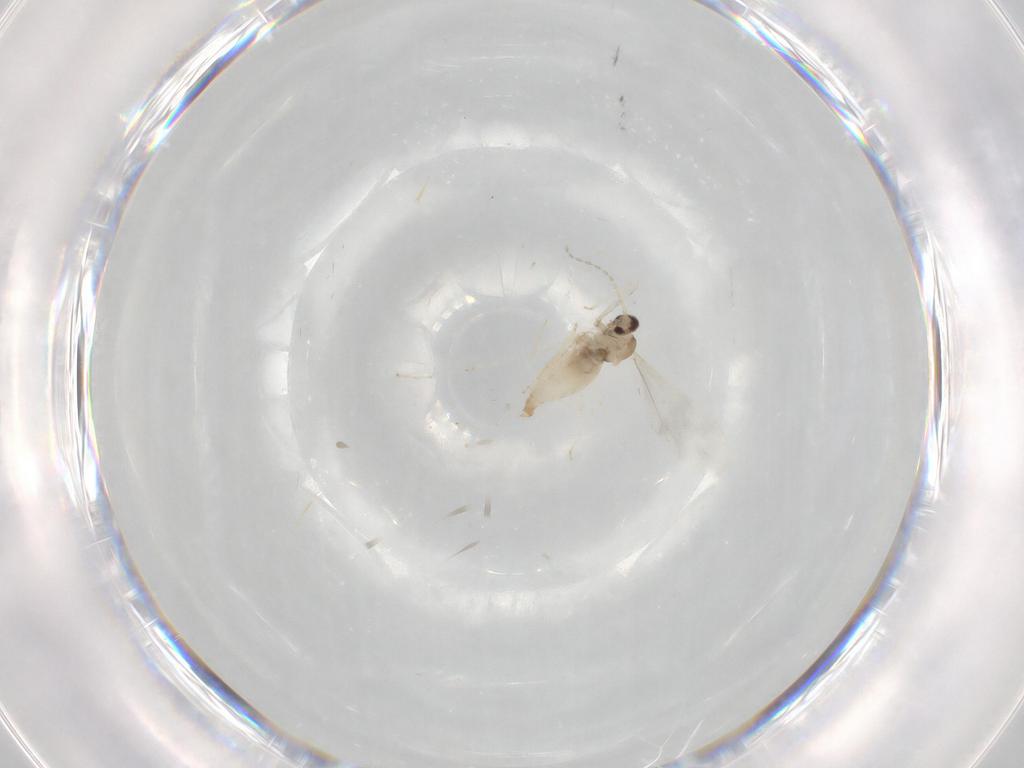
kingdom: Animalia
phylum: Arthropoda
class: Insecta
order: Diptera
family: Cecidomyiidae
